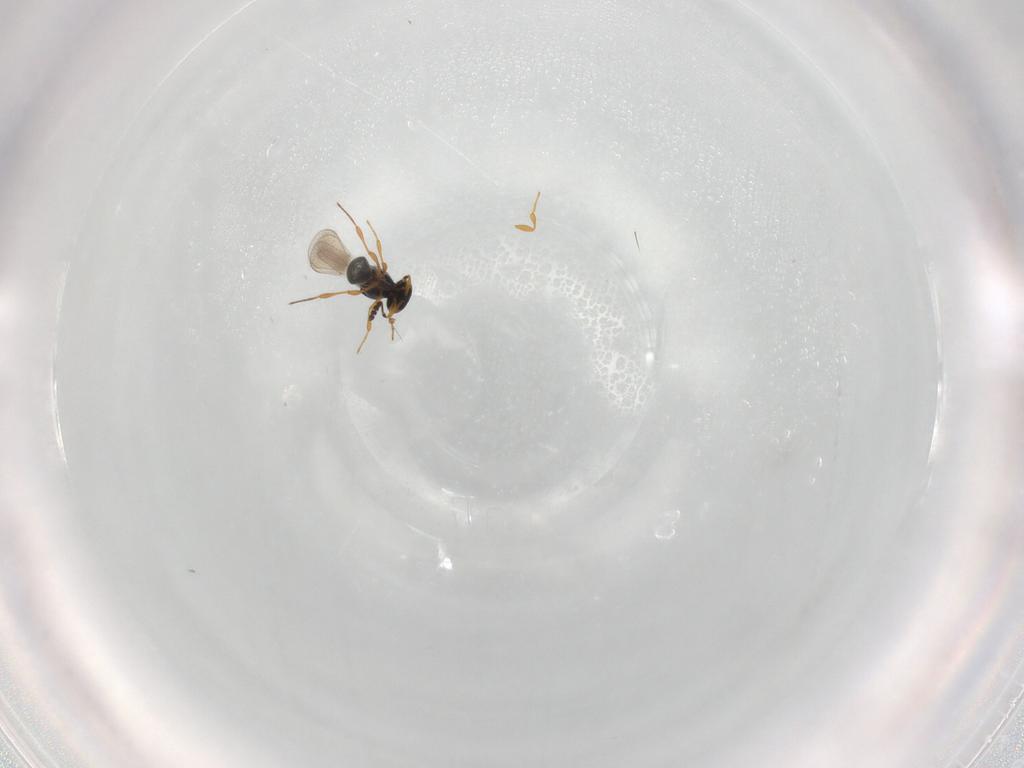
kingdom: Animalia
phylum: Arthropoda
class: Insecta
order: Hymenoptera
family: Platygastridae
